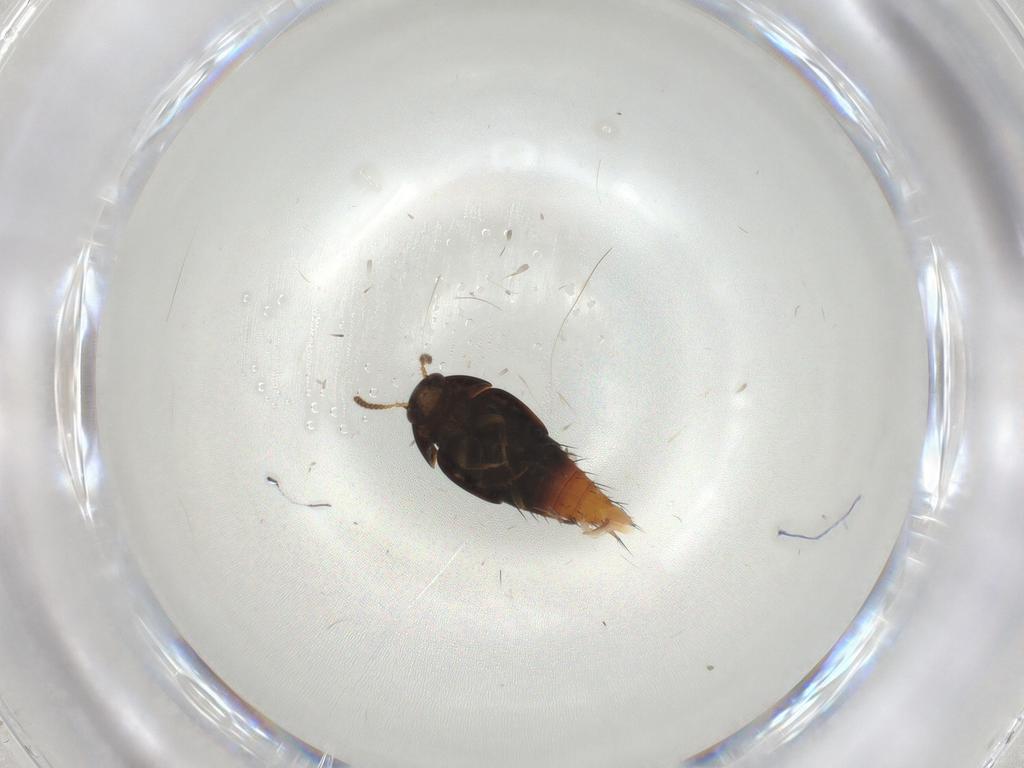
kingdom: Animalia
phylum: Arthropoda
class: Insecta
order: Coleoptera
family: Staphylinidae
